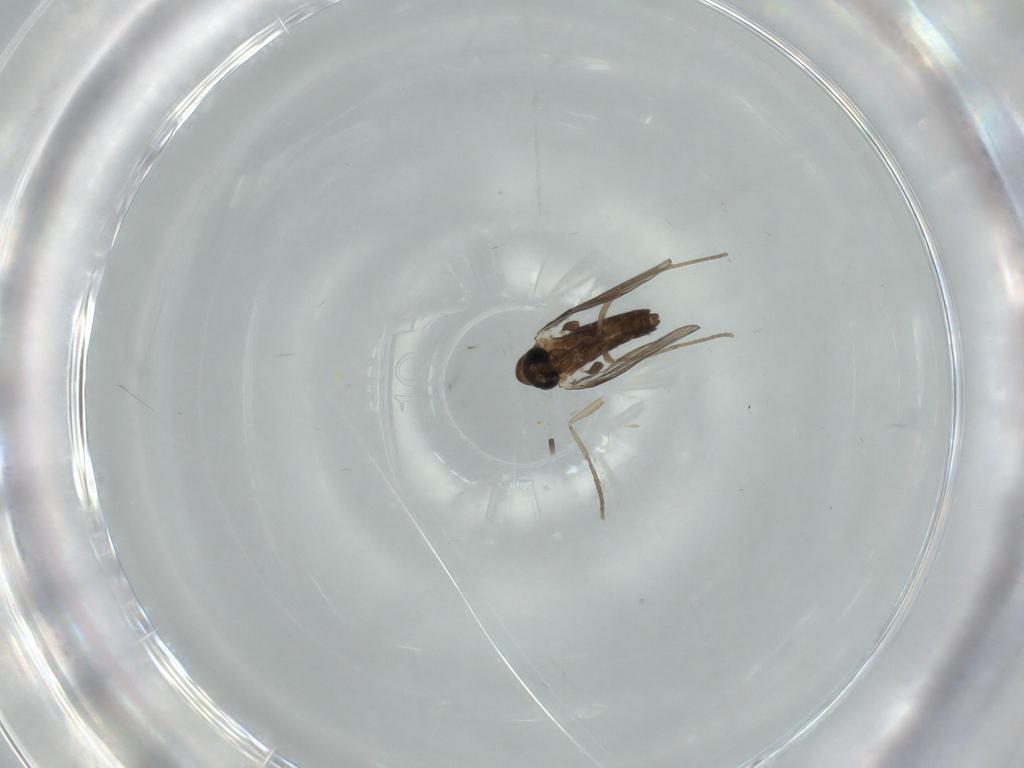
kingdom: Animalia
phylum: Arthropoda
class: Insecta
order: Diptera
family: Psychodidae
